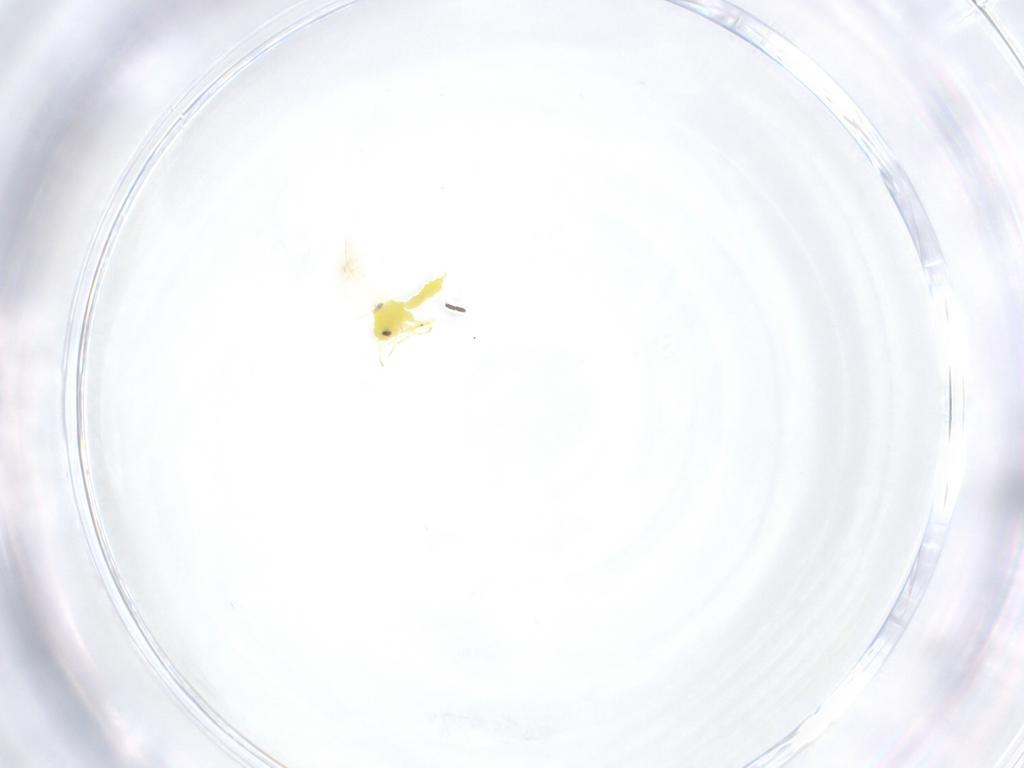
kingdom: Animalia
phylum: Arthropoda
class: Insecta
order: Hemiptera
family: Aleyrodidae
